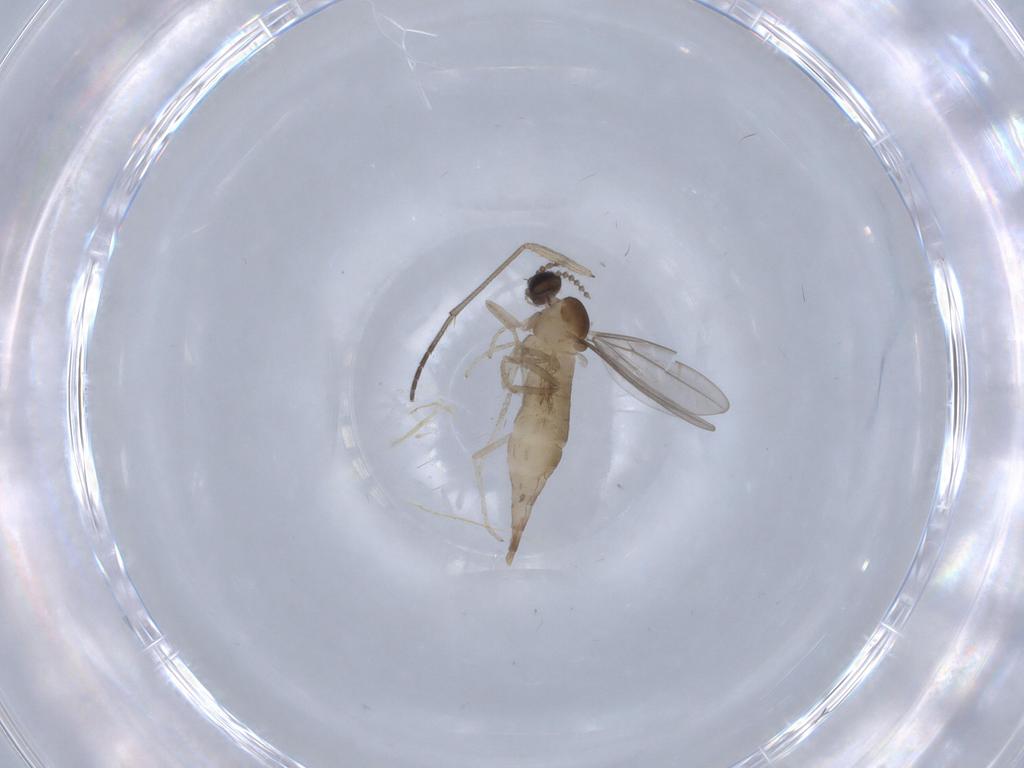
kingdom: Animalia
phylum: Arthropoda
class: Insecta
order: Diptera
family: Cecidomyiidae
